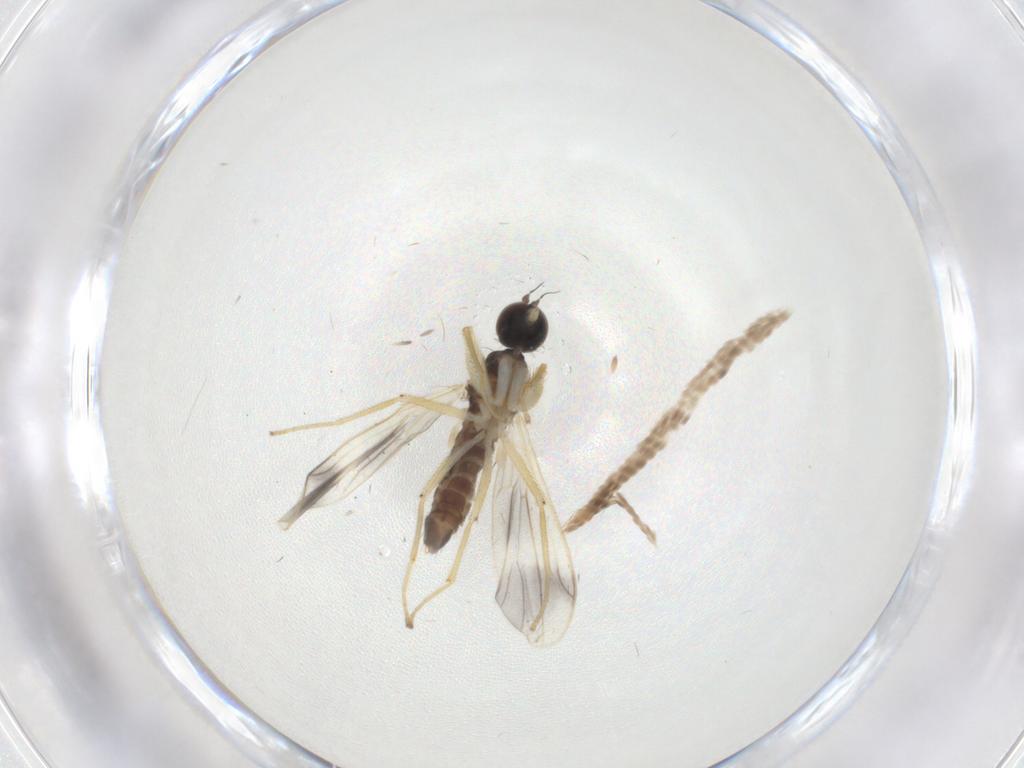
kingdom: Animalia
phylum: Arthropoda
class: Insecta
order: Diptera
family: Empididae
